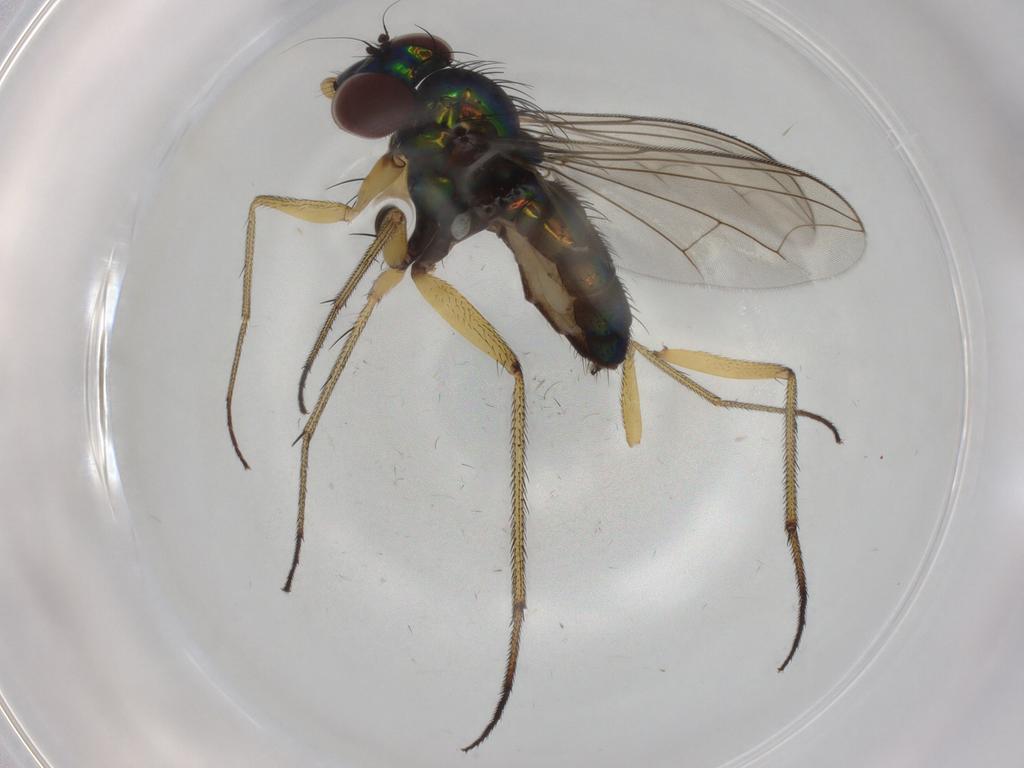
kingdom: Animalia
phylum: Arthropoda
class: Insecta
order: Diptera
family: Dolichopodidae
